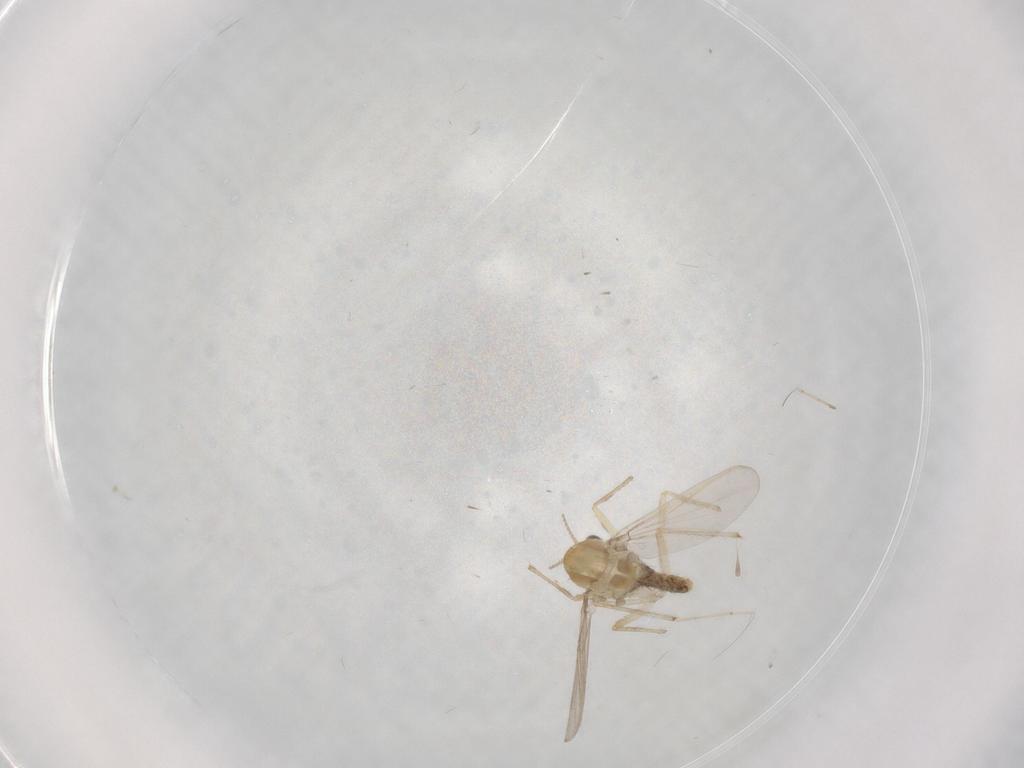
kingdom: Animalia
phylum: Arthropoda
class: Insecta
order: Diptera
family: Chironomidae
